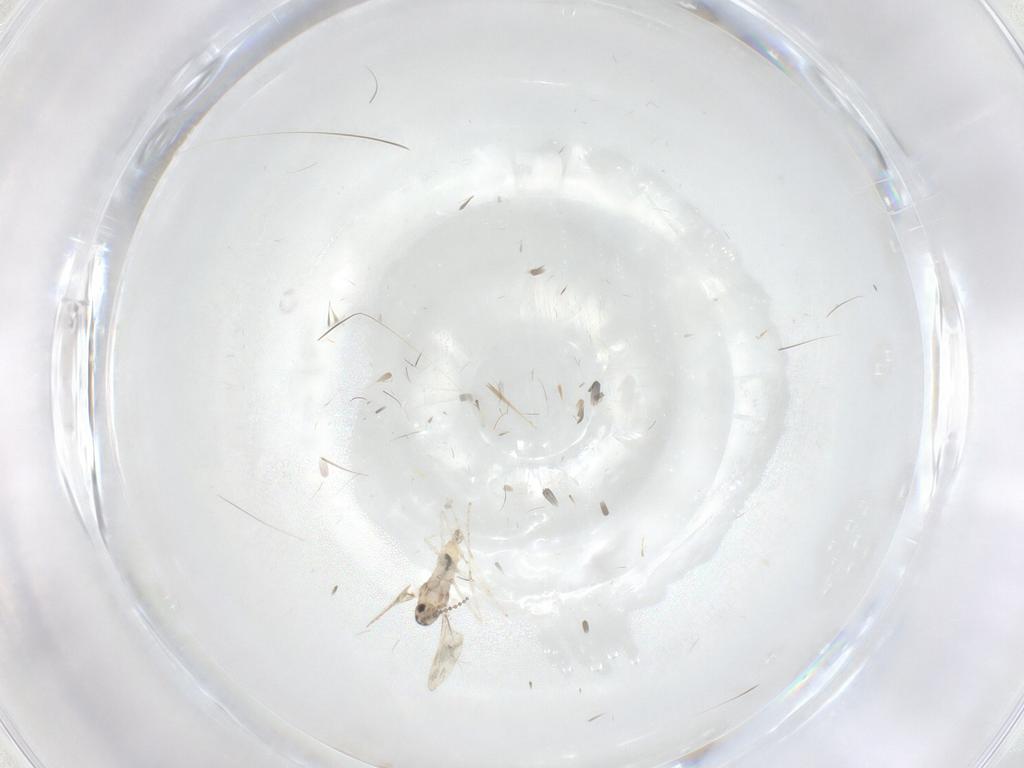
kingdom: Animalia
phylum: Arthropoda
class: Insecta
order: Diptera
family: Cecidomyiidae
